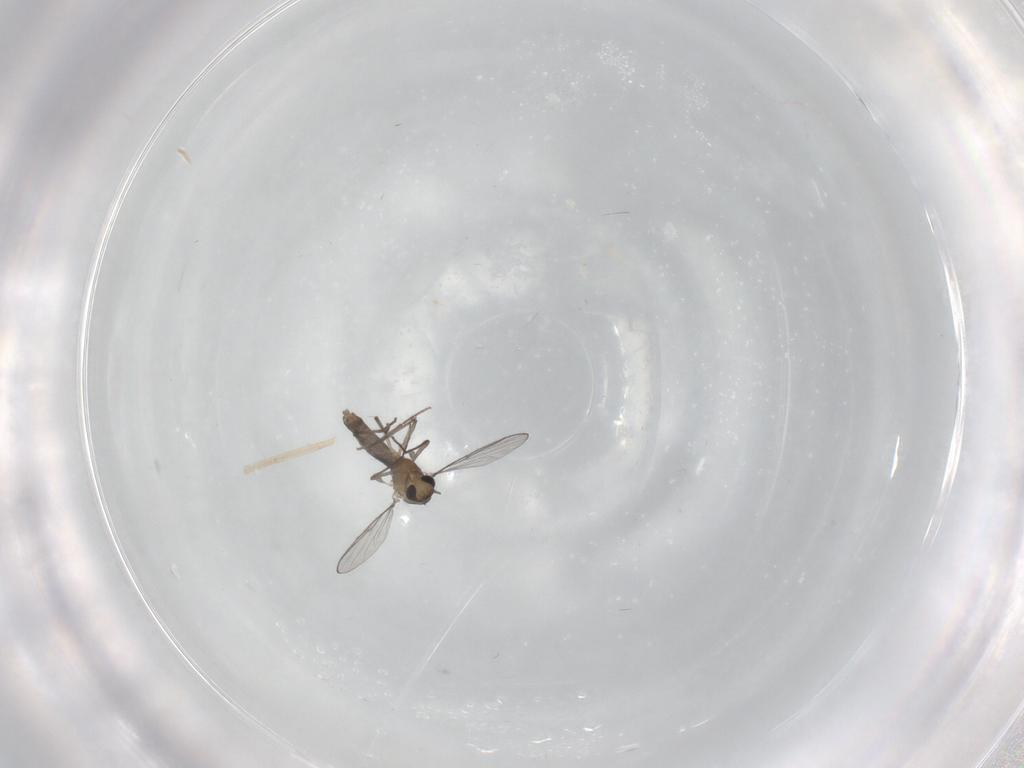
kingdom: Animalia
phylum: Arthropoda
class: Insecta
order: Diptera
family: Chironomidae
